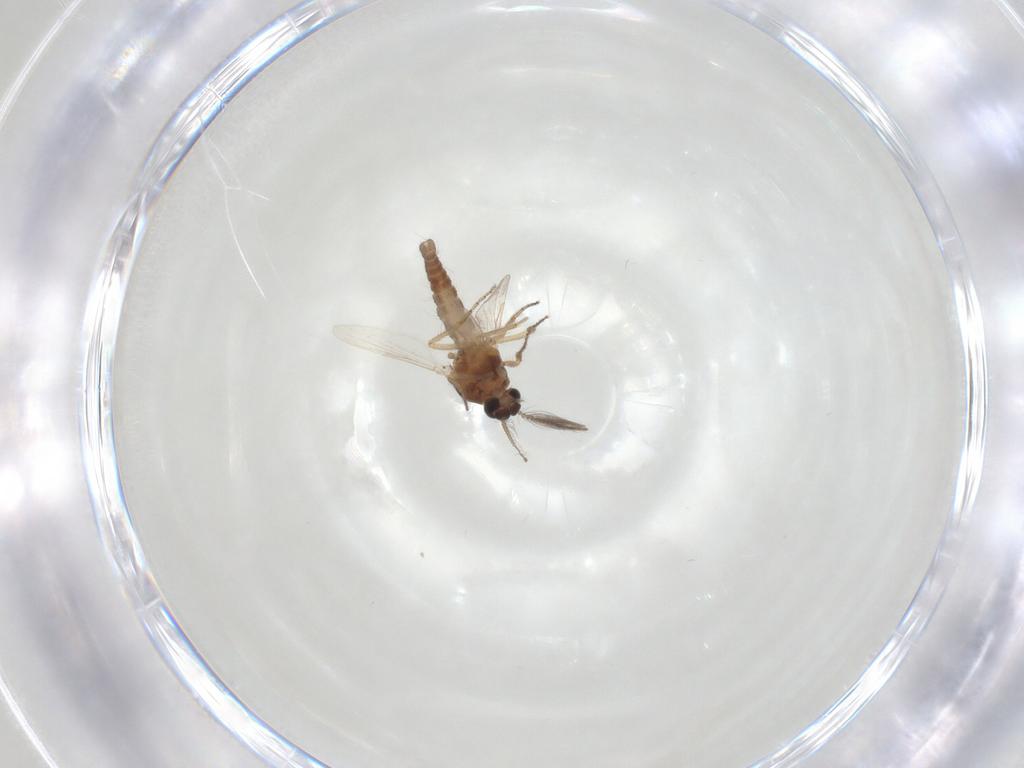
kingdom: Animalia
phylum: Arthropoda
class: Insecta
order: Diptera
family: Ceratopogonidae
